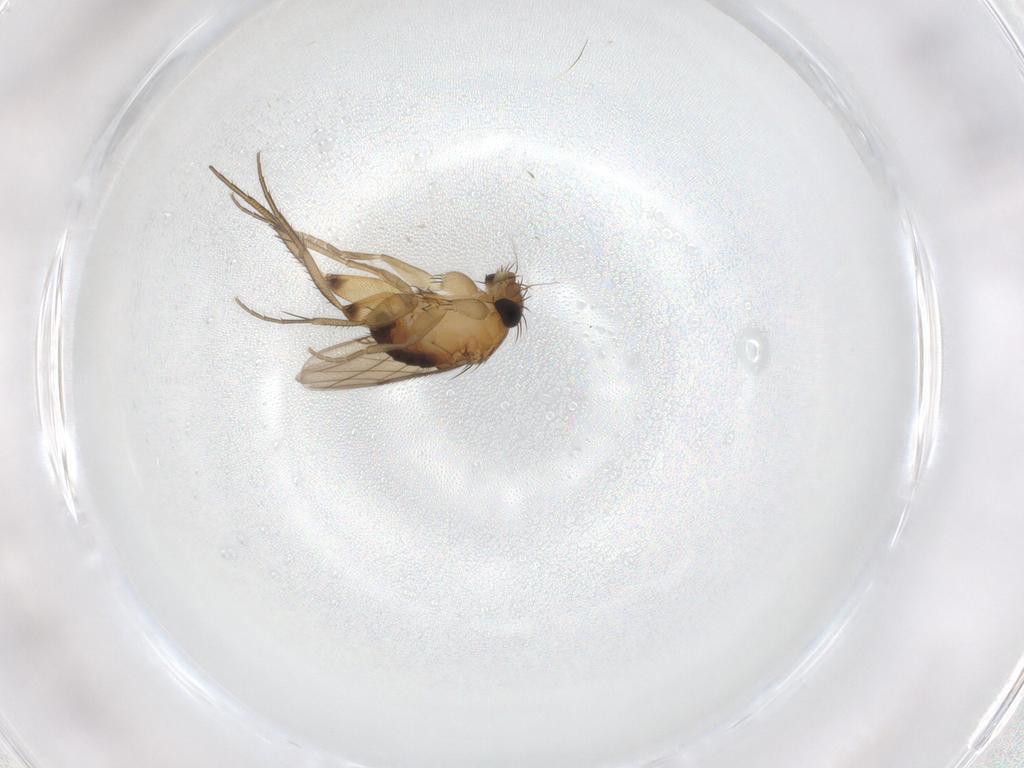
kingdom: Animalia
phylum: Arthropoda
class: Insecta
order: Diptera
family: Phoridae
